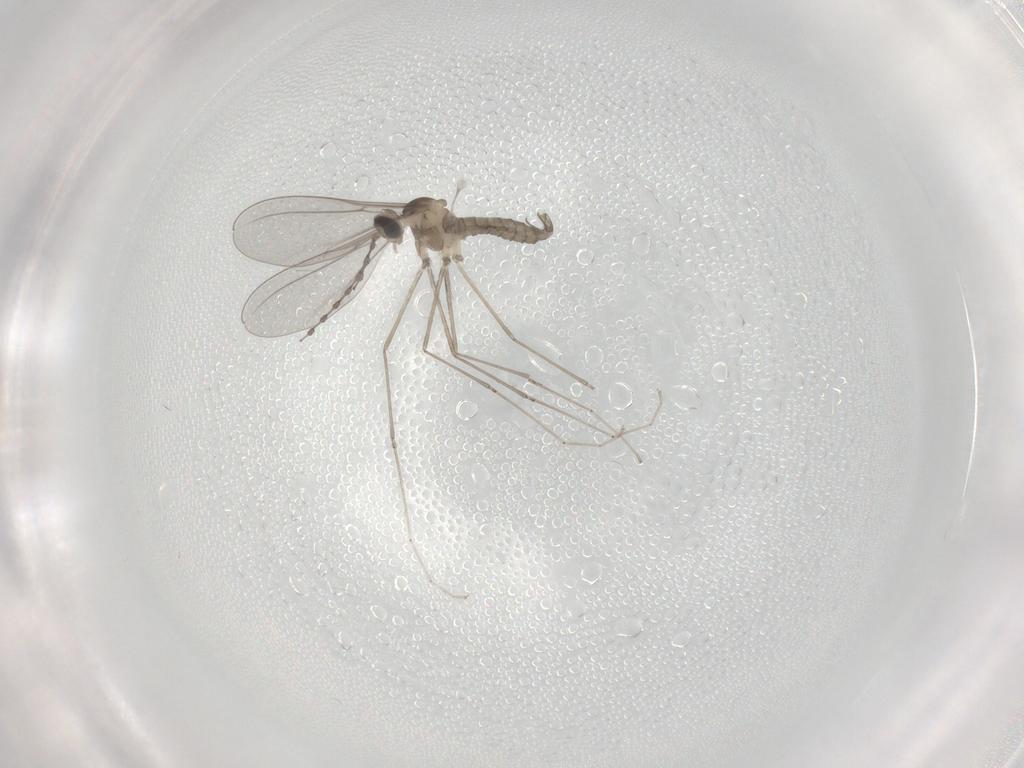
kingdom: Animalia
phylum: Arthropoda
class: Insecta
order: Diptera
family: Cecidomyiidae
